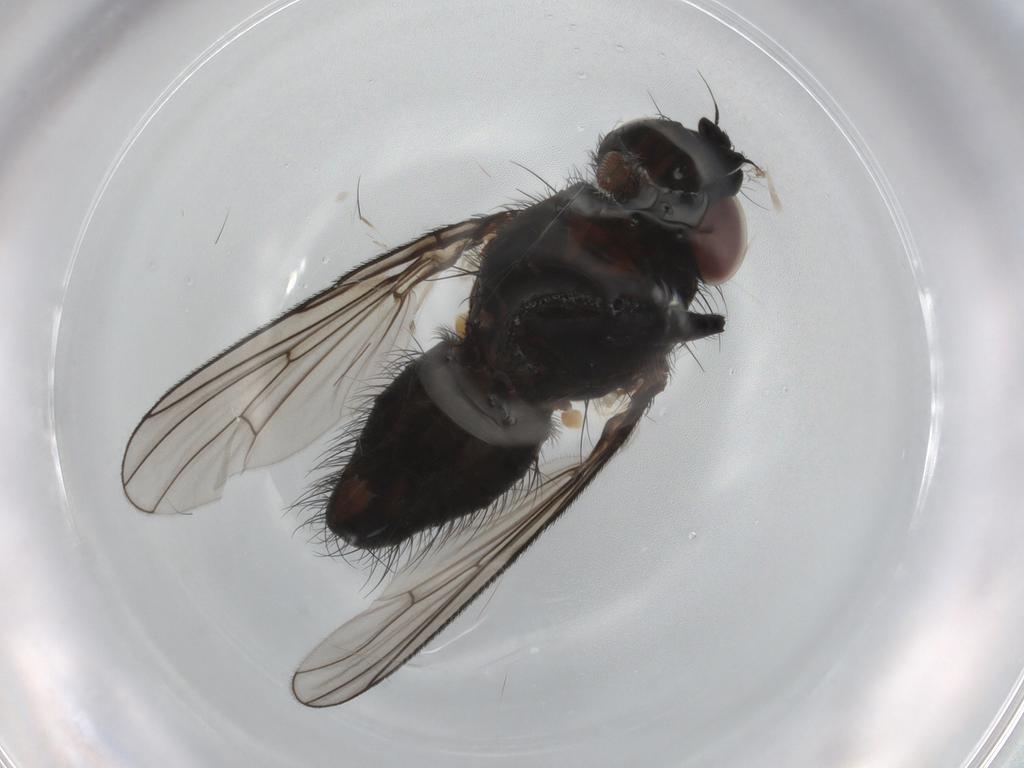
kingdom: Animalia
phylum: Arthropoda
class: Insecta
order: Diptera
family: Anthomyiidae
